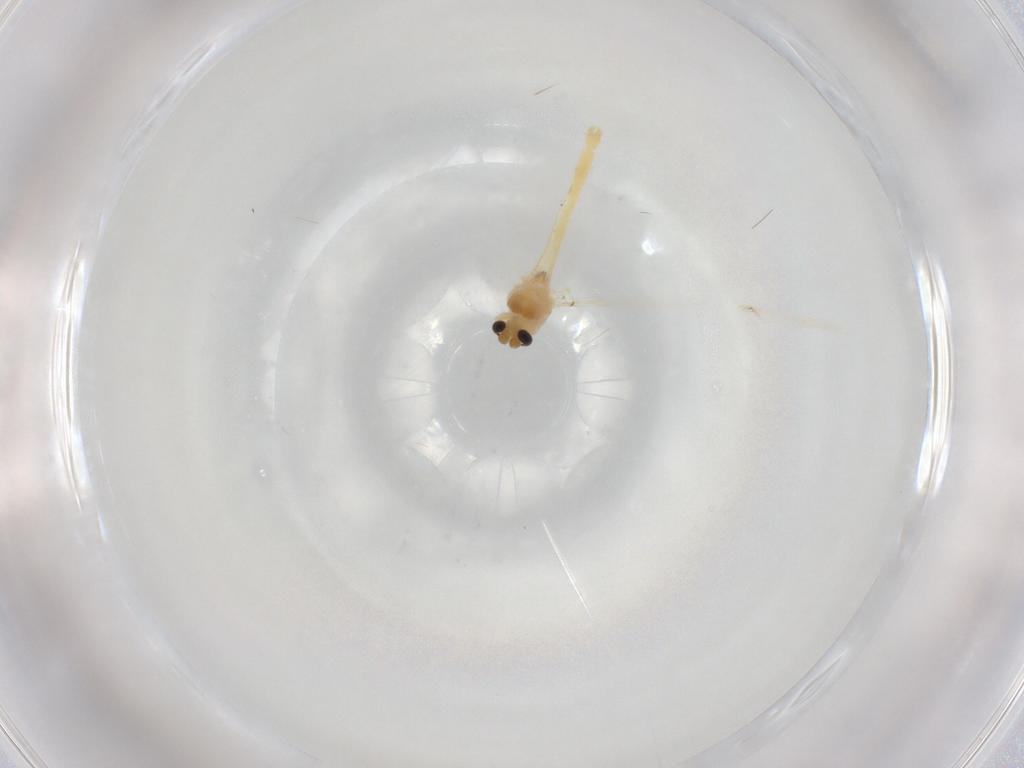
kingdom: Animalia
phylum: Arthropoda
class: Insecta
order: Diptera
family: Chironomidae
